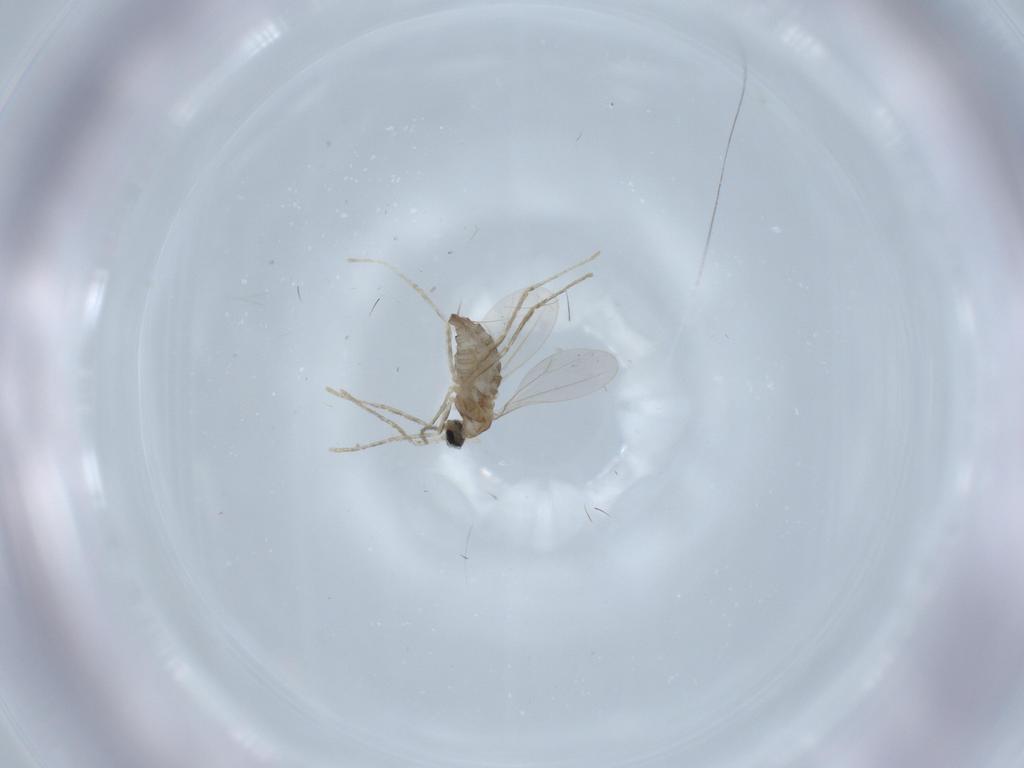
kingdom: Animalia
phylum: Arthropoda
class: Insecta
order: Diptera
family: Cecidomyiidae
